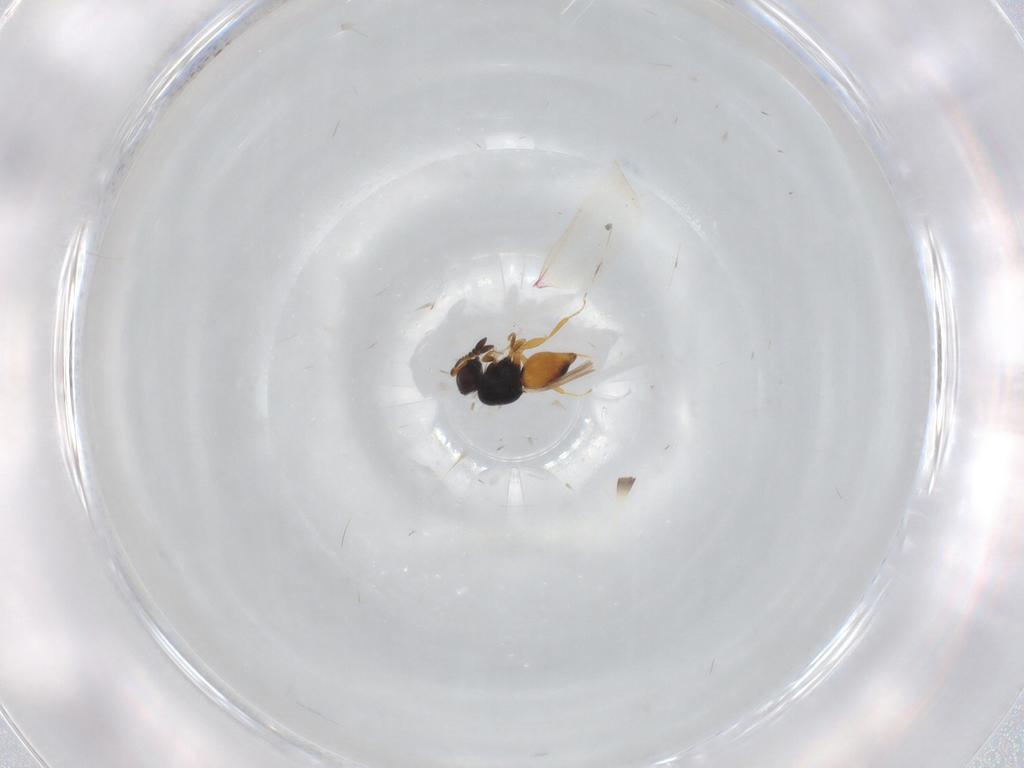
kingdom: Animalia
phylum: Arthropoda
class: Insecta
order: Hymenoptera
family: Ceraphronidae
